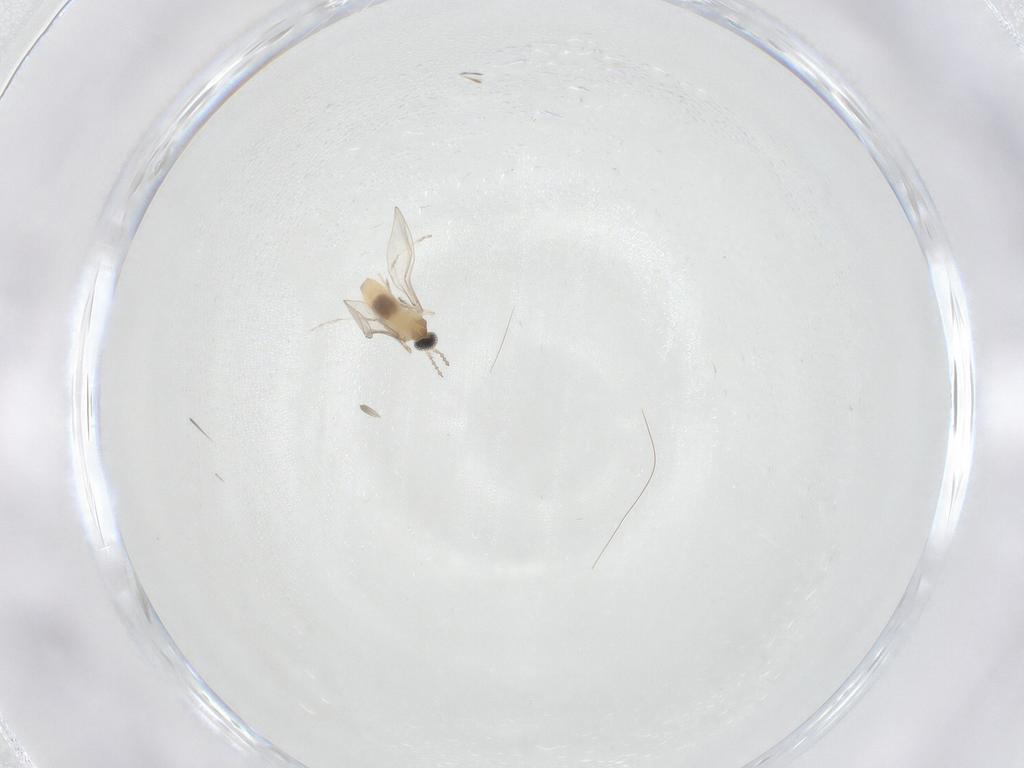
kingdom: Animalia
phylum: Arthropoda
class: Insecta
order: Diptera
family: Cecidomyiidae
